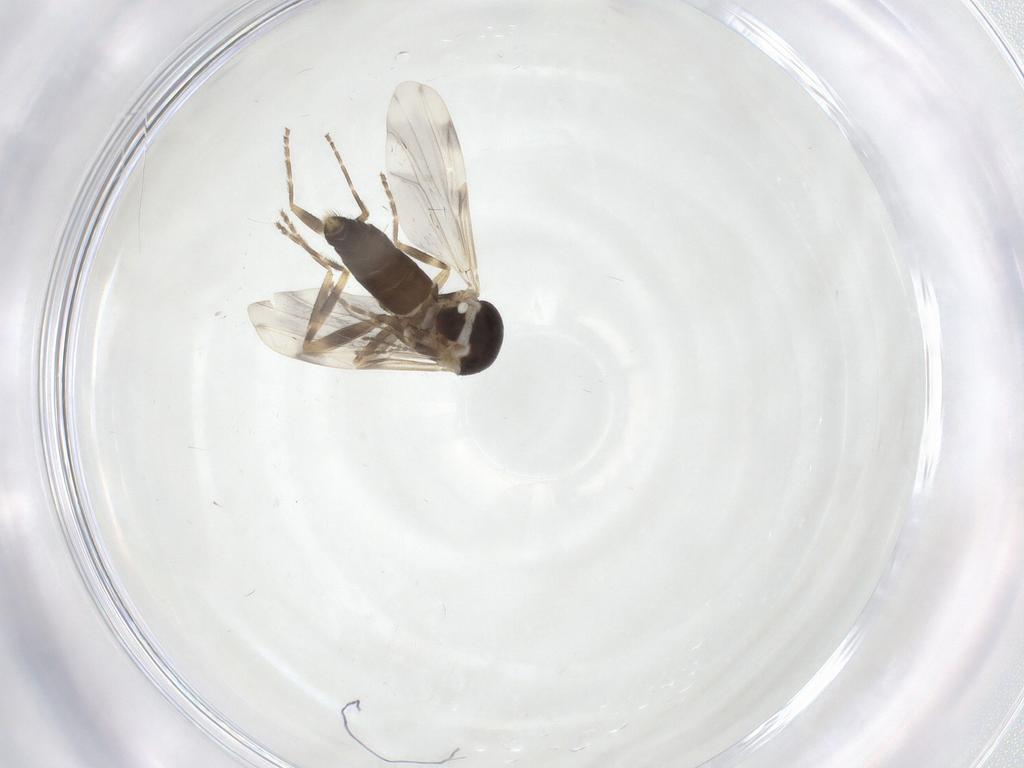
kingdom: Animalia
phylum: Arthropoda
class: Insecta
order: Diptera
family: Ceratopogonidae
